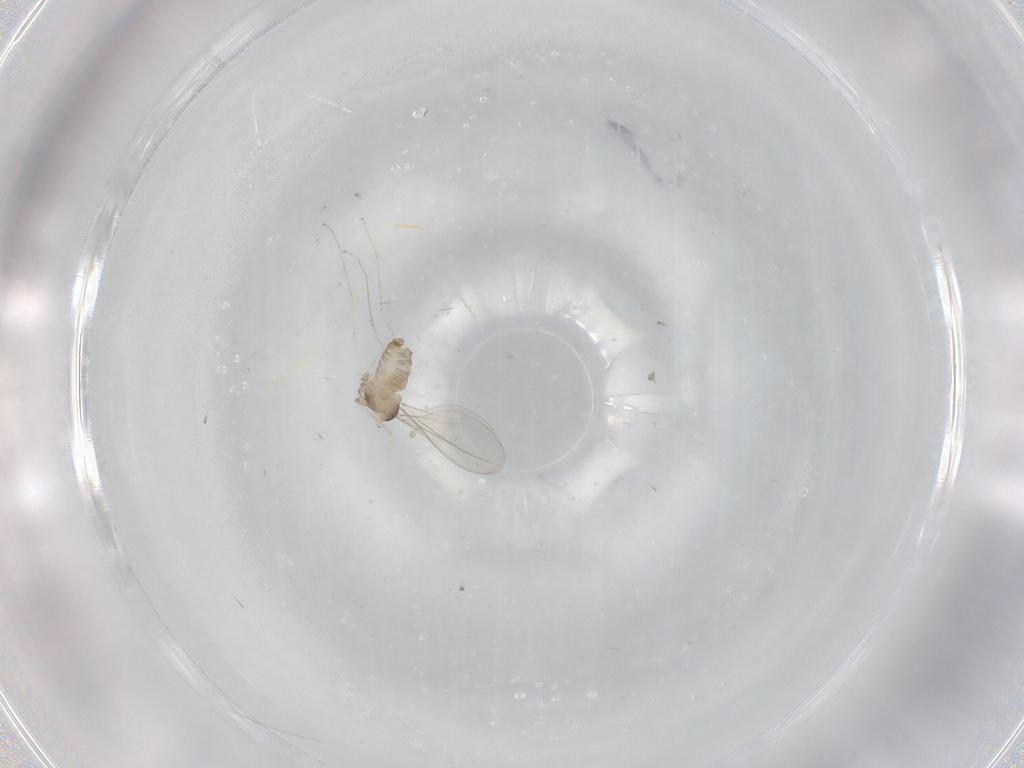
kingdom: Animalia
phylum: Arthropoda
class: Insecta
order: Diptera
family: Cecidomyiidae
